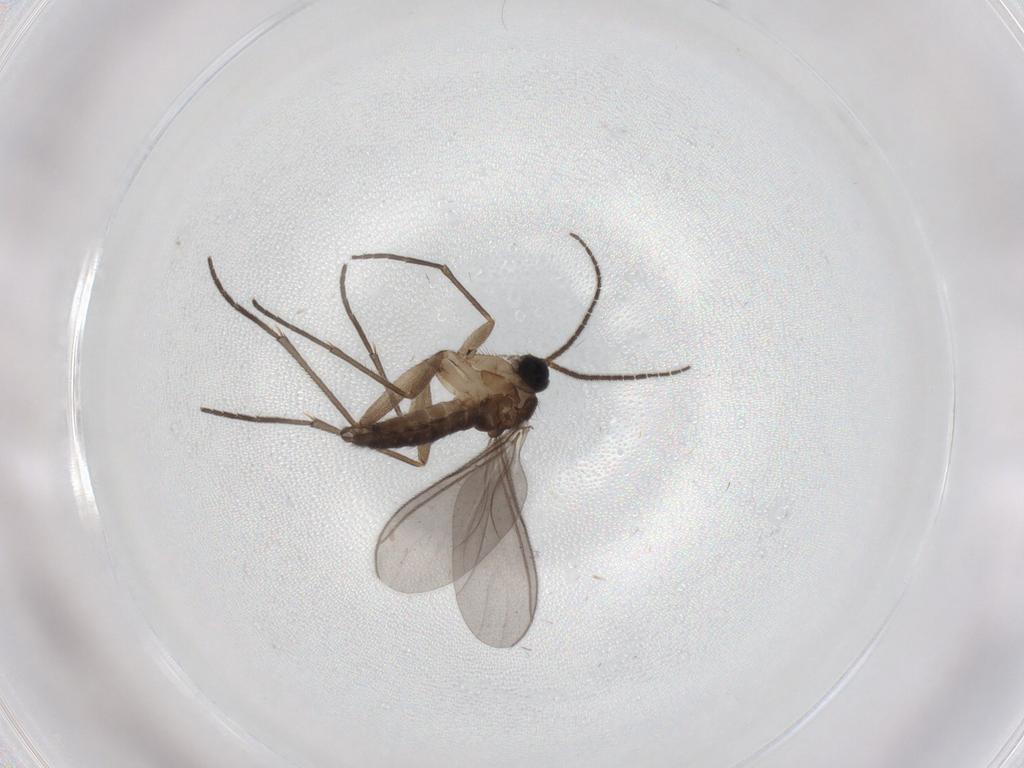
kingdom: Animalia
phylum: Arthropoda
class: Insecta
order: Diptera
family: Sciaridae
